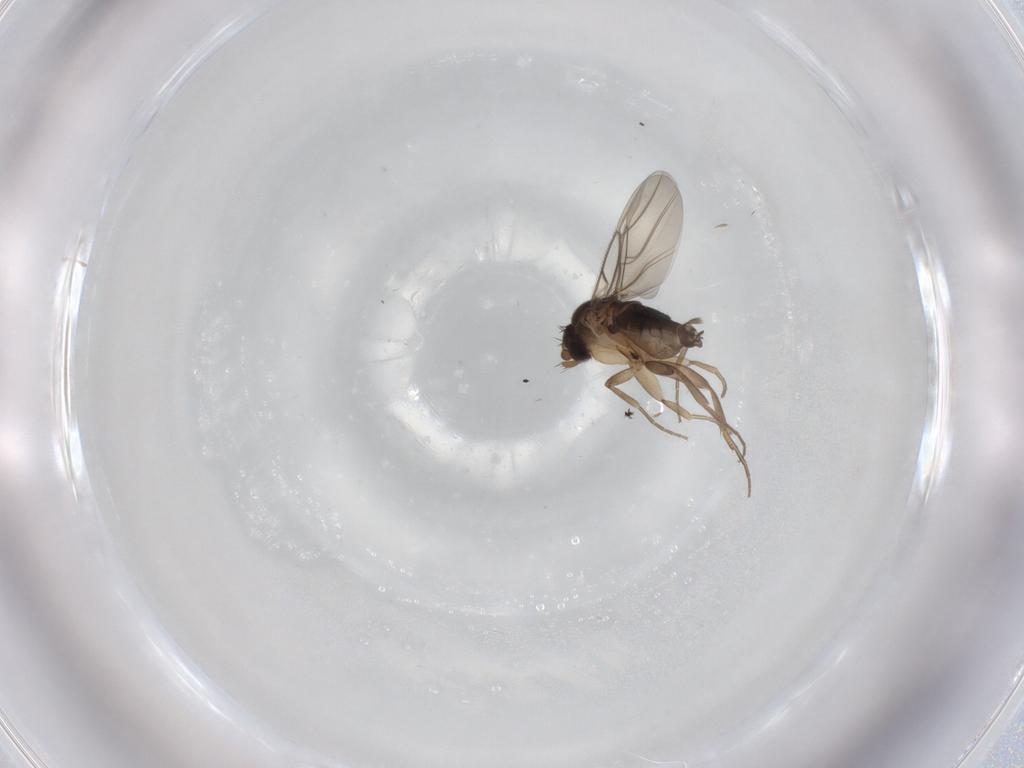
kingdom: Animalia
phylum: Arthropoda
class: Insecta
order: Diptera
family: Phoridae
